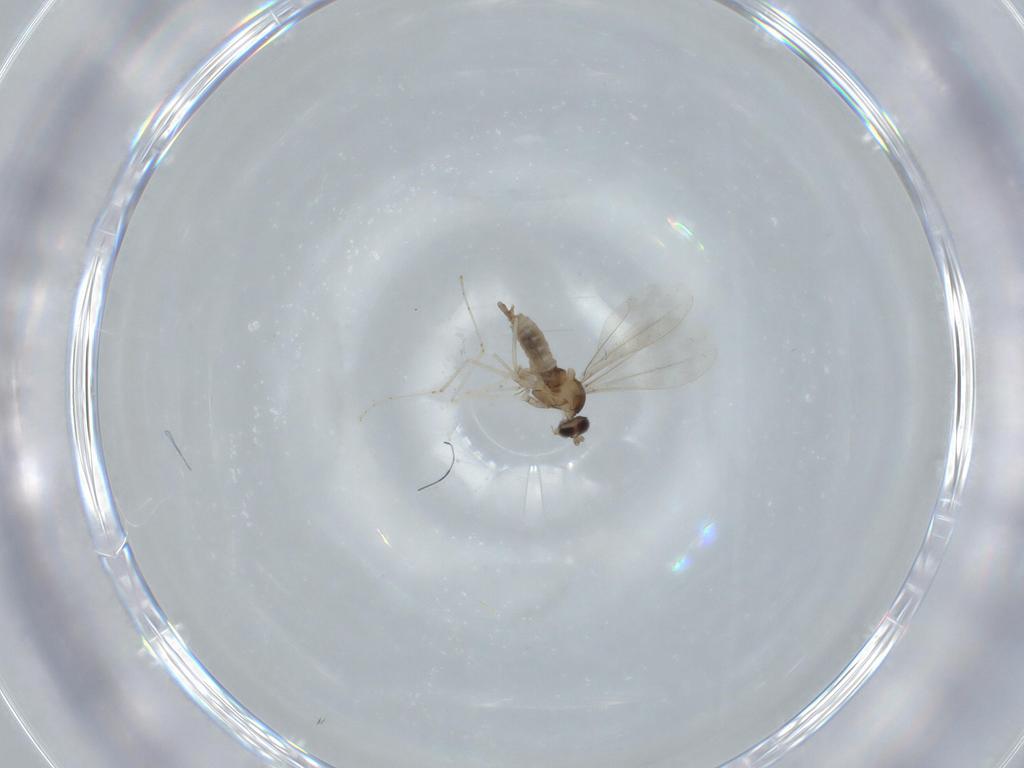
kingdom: Animalia
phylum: Arthropoda
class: Insecta
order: Diptera
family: Cecidomyiidae
